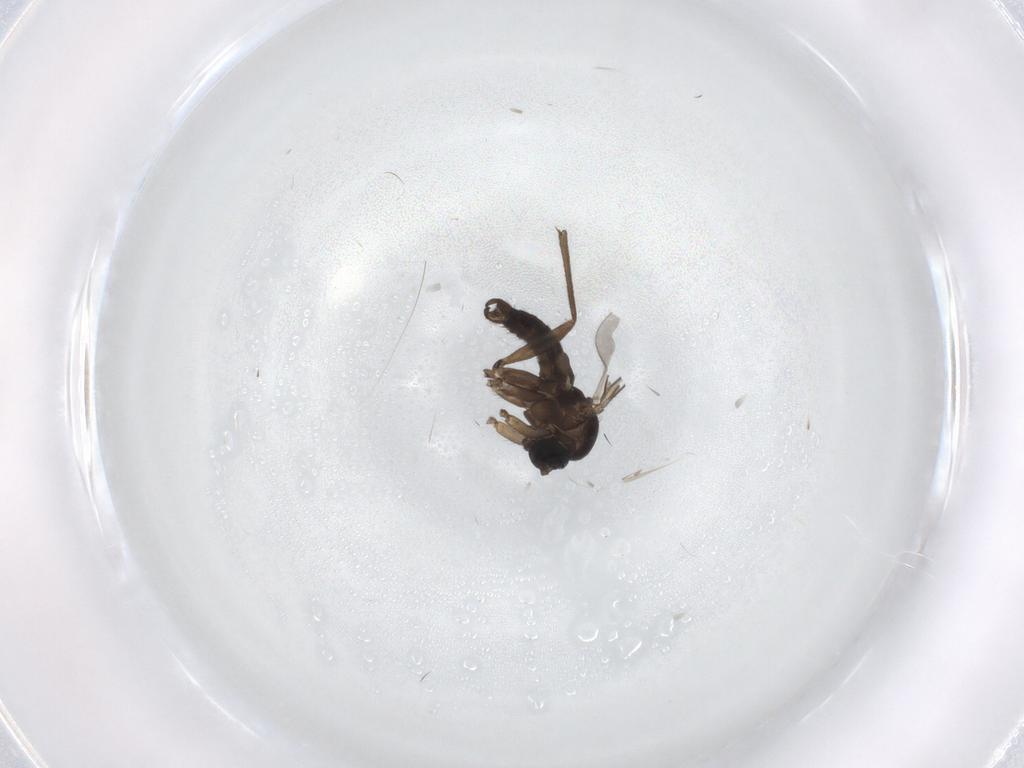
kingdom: Animalia
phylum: Arthropoda
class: Insecta
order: Diptera
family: Sciaridae
